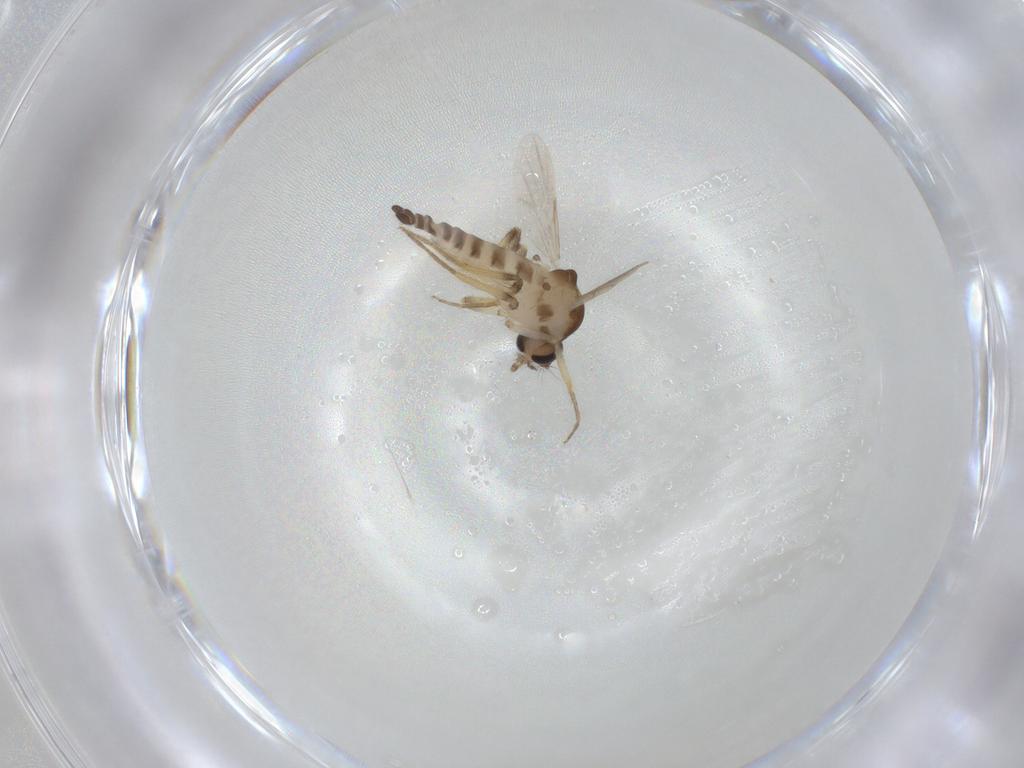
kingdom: Animalia
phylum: Arthropoda
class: Insecta
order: Diptera
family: Ceratopogonidae
